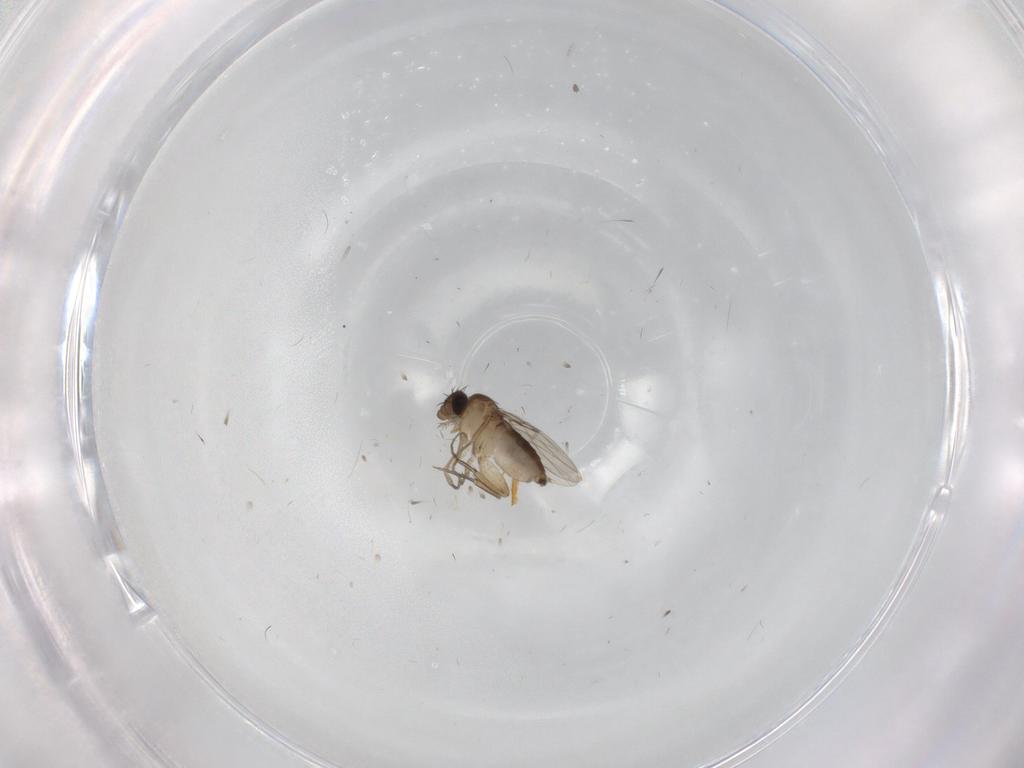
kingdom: Animalia
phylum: Arthropoda
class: Insecta
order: Diptera
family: Phoridae
